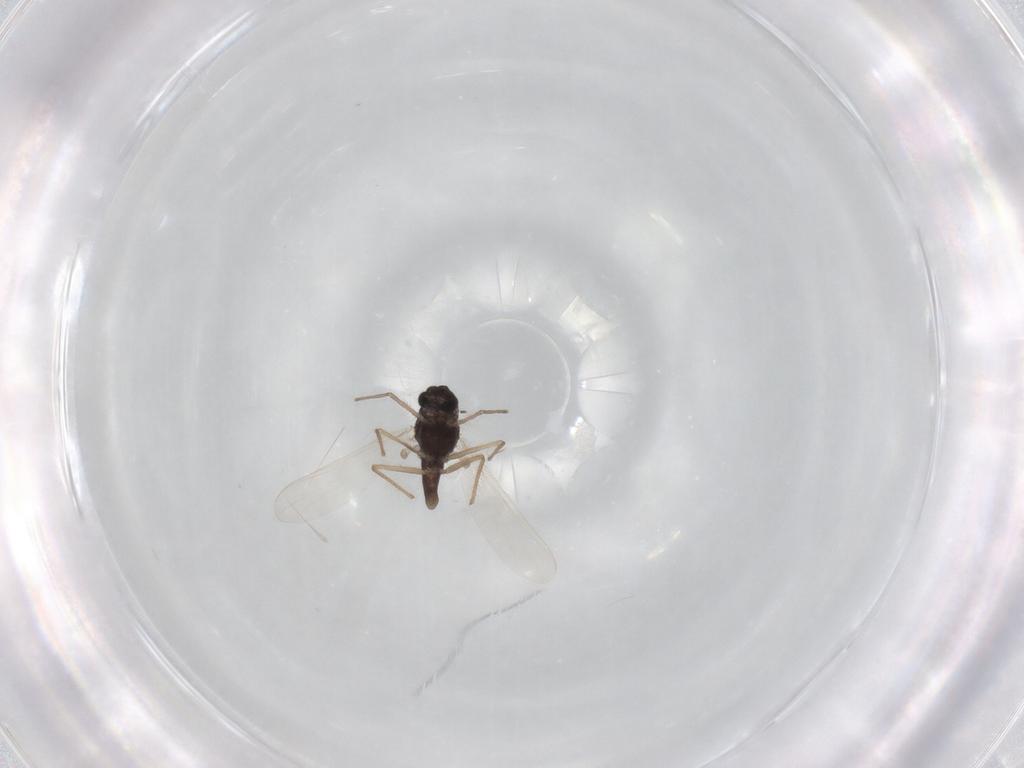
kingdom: Animalia
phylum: Arthropoda
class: Insecta
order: Diptera
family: Chironomidae
